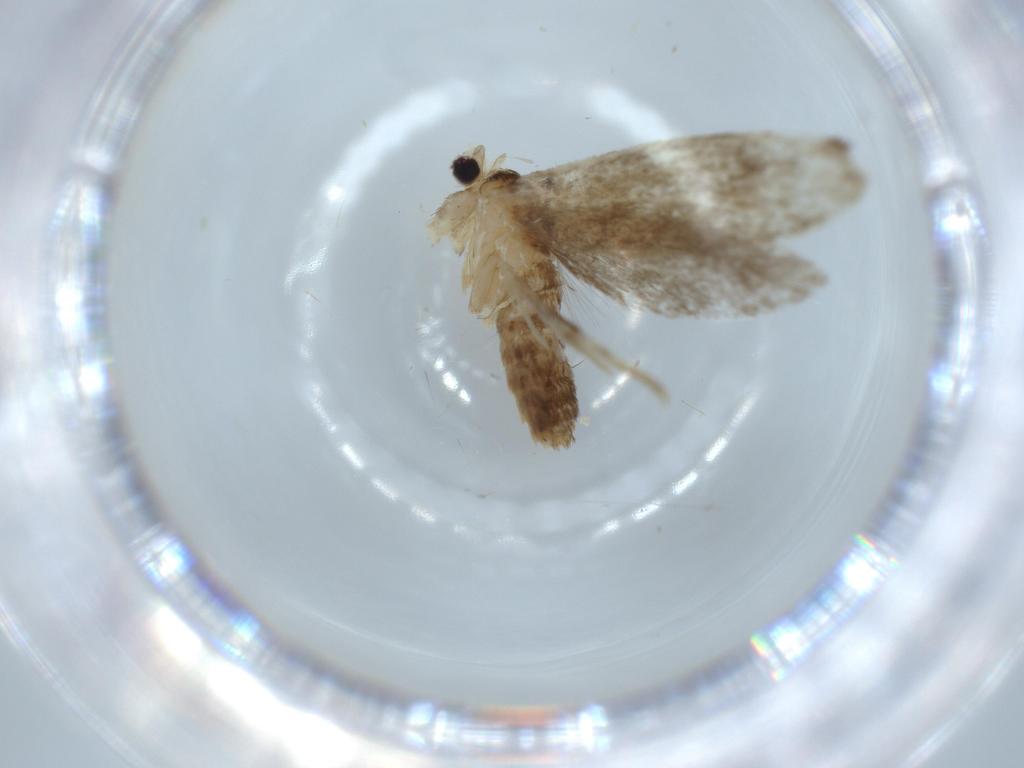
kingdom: Animalia
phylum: Arthropoda
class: Insecta
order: Lepidoptera
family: Tineidae
